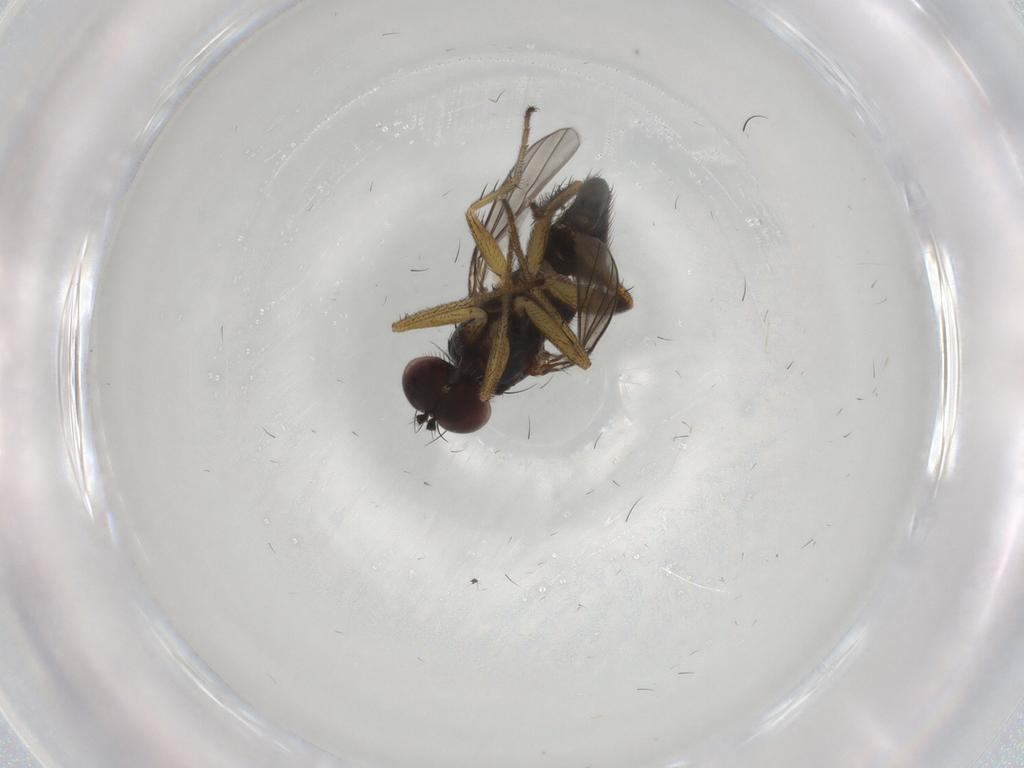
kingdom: Animalia
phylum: Arthropoda
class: Insecta
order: Diptera
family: Dolichopodidae
